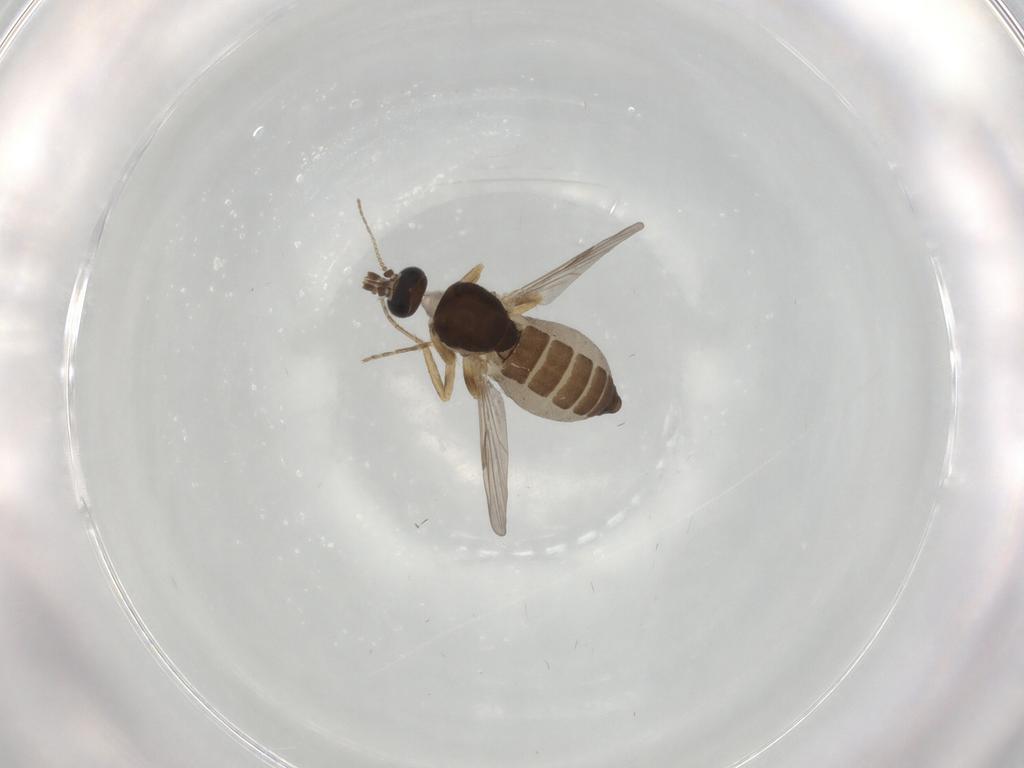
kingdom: Animalia
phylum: Arthropoda
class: Insecta
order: Diptera
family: Ceratopogonidae
